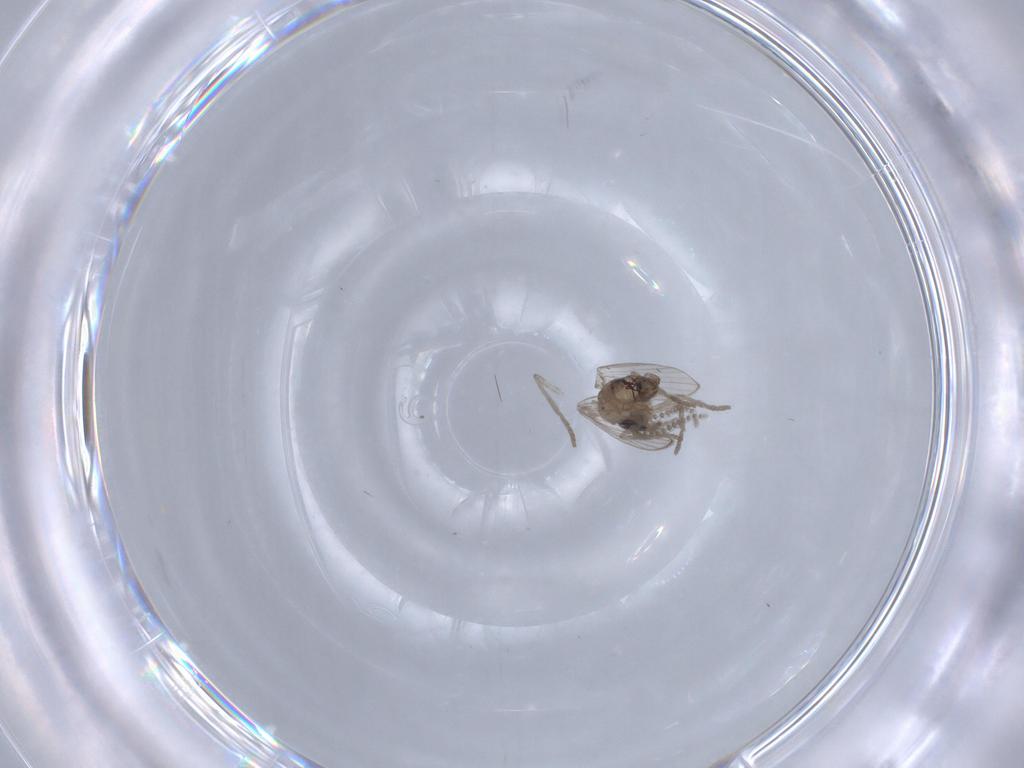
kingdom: Animalia
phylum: Arthropoda
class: Insecta
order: Diptera
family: Psychodidae
